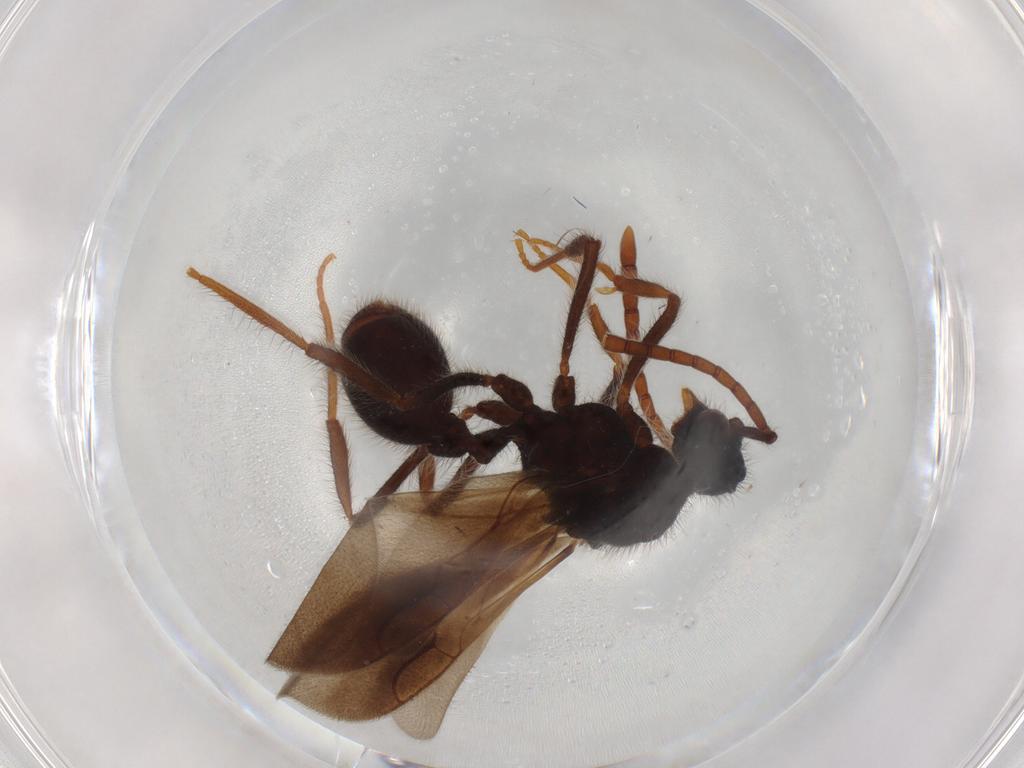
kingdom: Animalia
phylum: Arthropoda
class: Insecta
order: Hymenoptera
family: Formicidae
